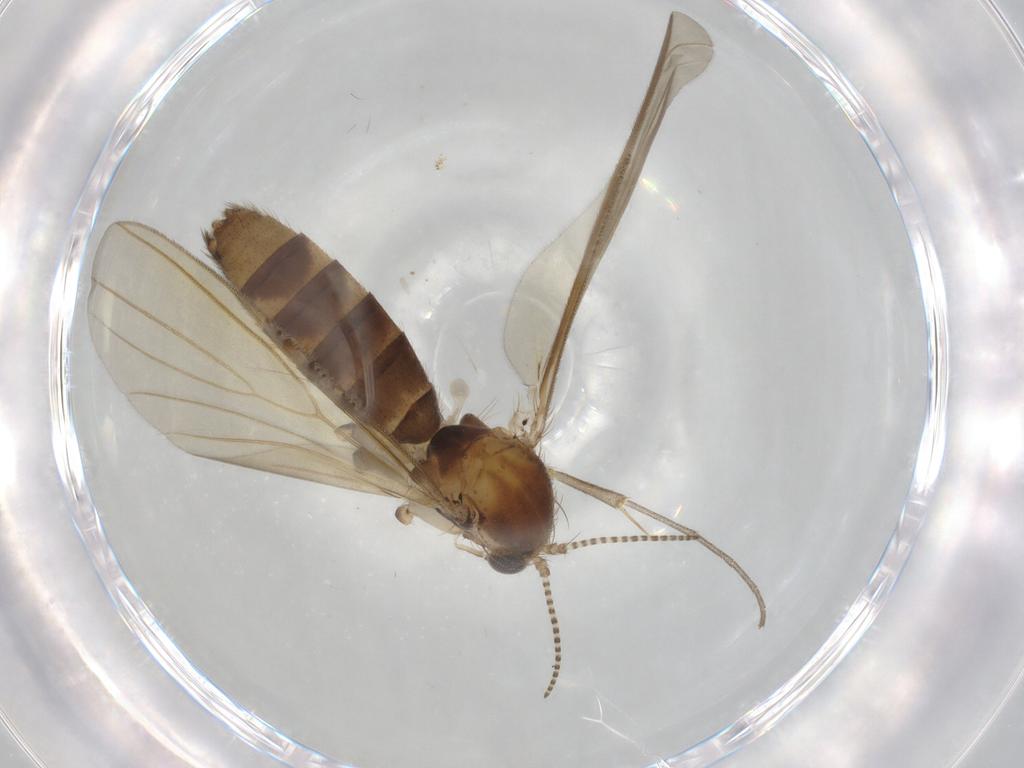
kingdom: Animalia
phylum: Arthropoda
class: Insecta
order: Diptera
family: Mycetophilidae
